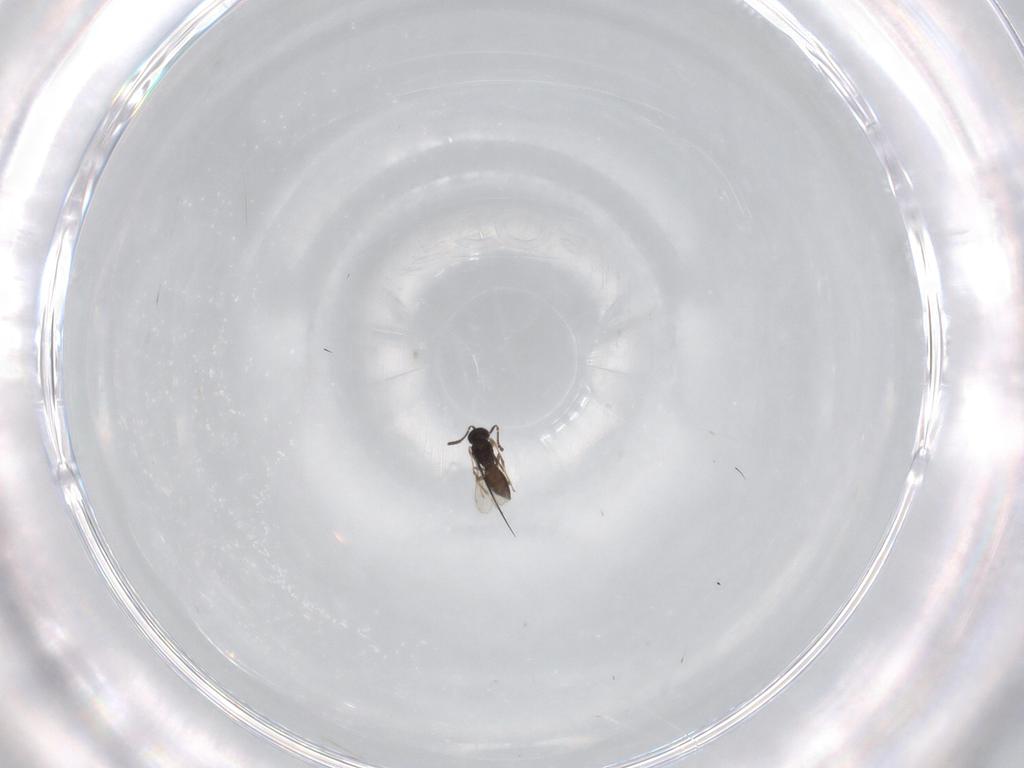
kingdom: Animalia
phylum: Arthropoda
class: Insecta
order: Hymenoptera
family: Scelionidae
